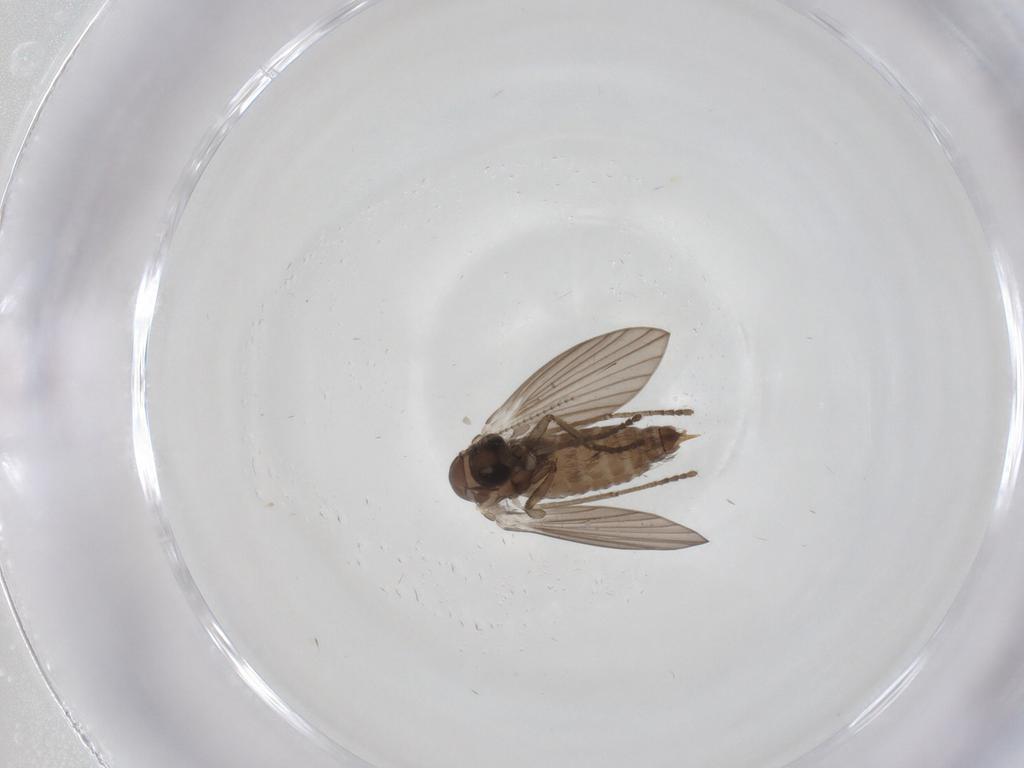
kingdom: Animalia
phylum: Arthropoda
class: Insecta
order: Diptera
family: Psychodidae
